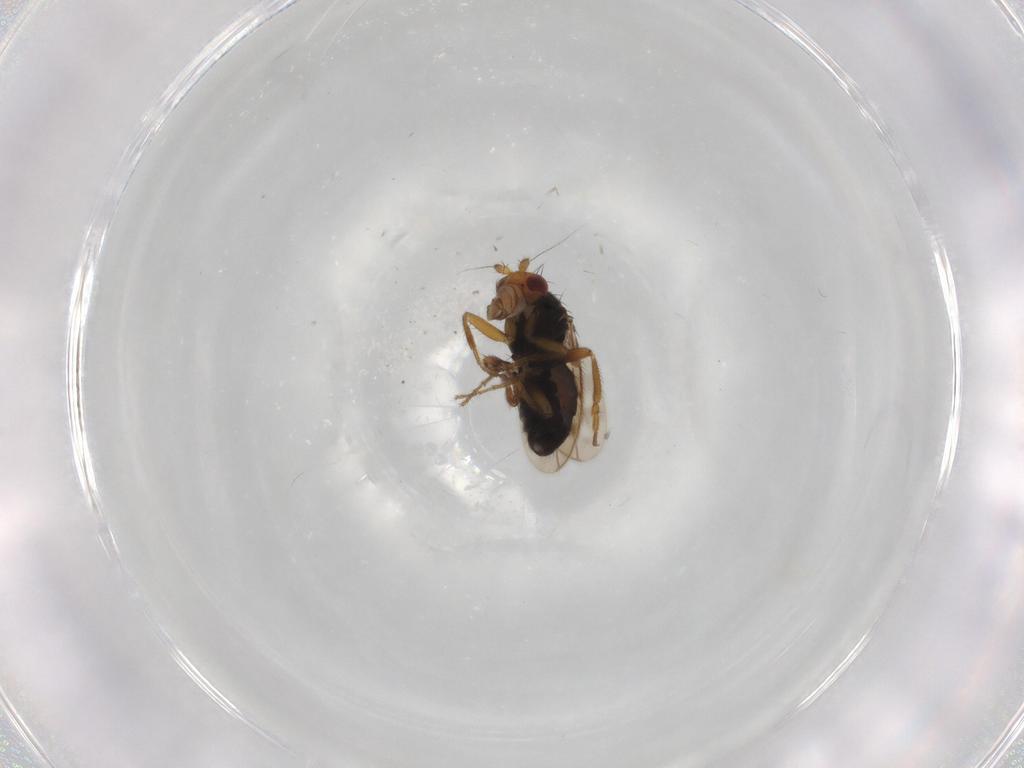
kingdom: Animalia
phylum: Arthropoda
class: Insecta
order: Diptera
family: Sphaeroceridae
